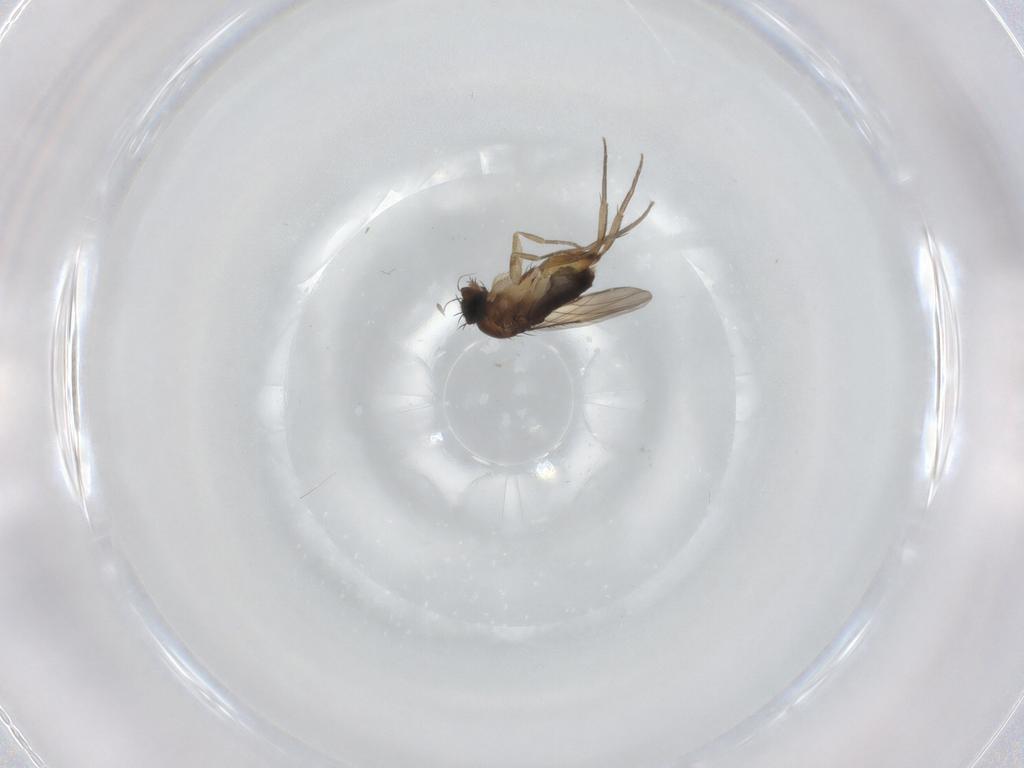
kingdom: Animalia
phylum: Arthropoda
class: Insecta
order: Diptera
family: Phoridae
